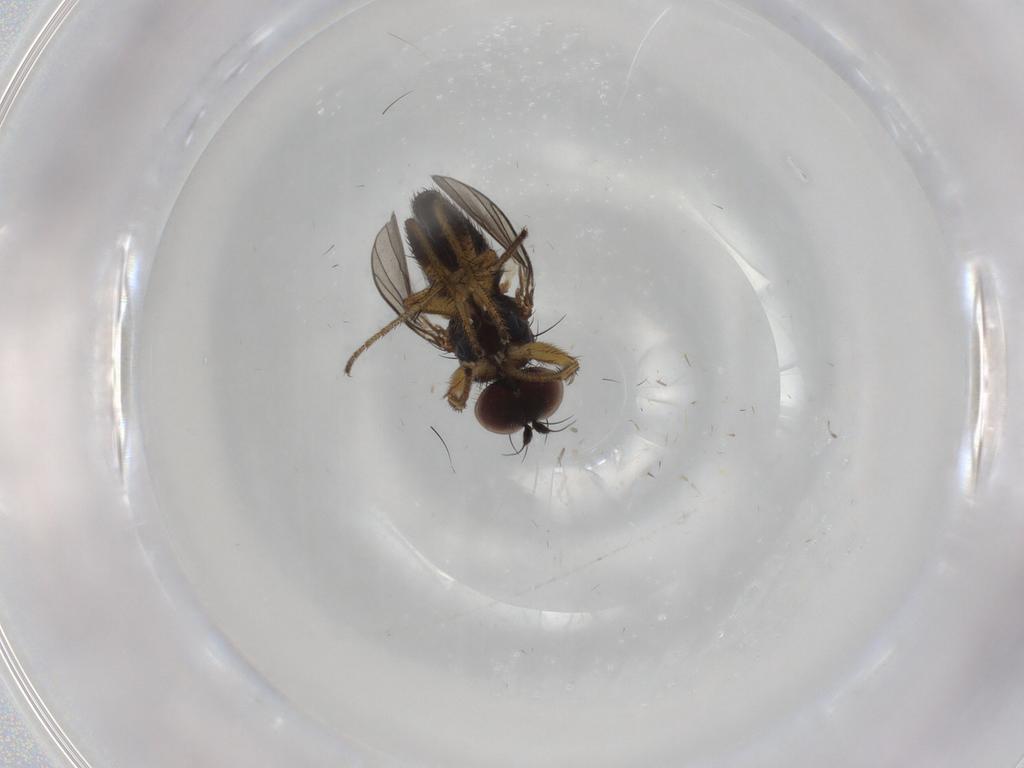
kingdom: Animalia
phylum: Arthropoda
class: Insecta
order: Diptera
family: Dolichopodidae
